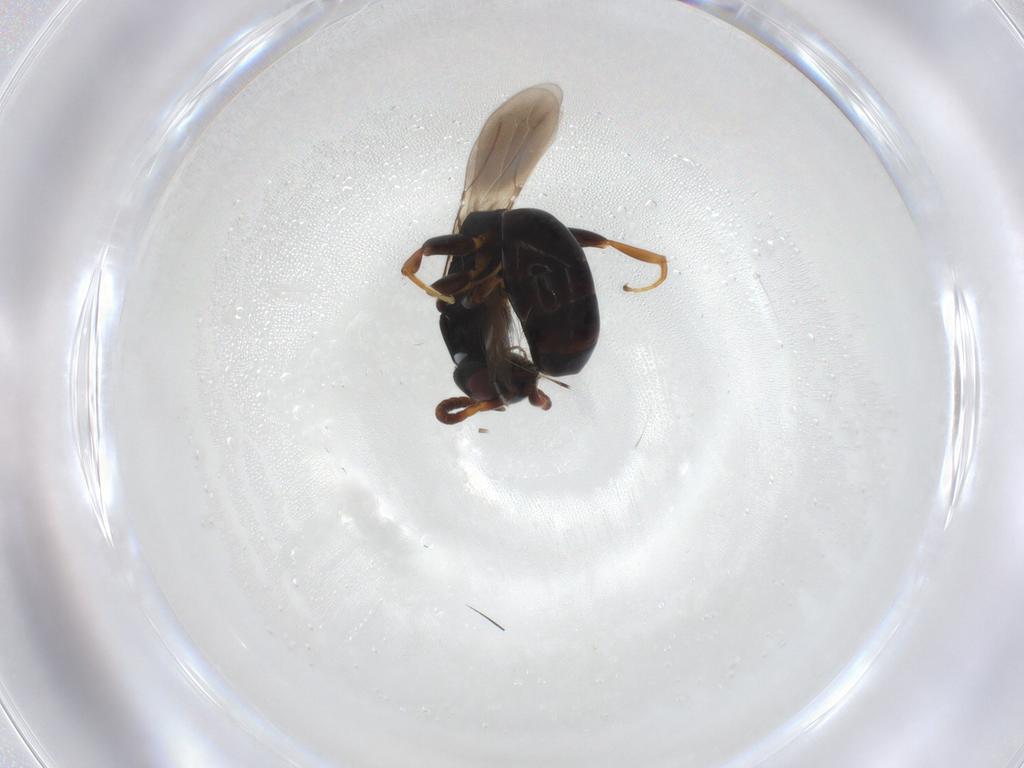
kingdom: Animalia
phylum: Arthropoda
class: Insecta
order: Hymenoptera
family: Bethylidae
